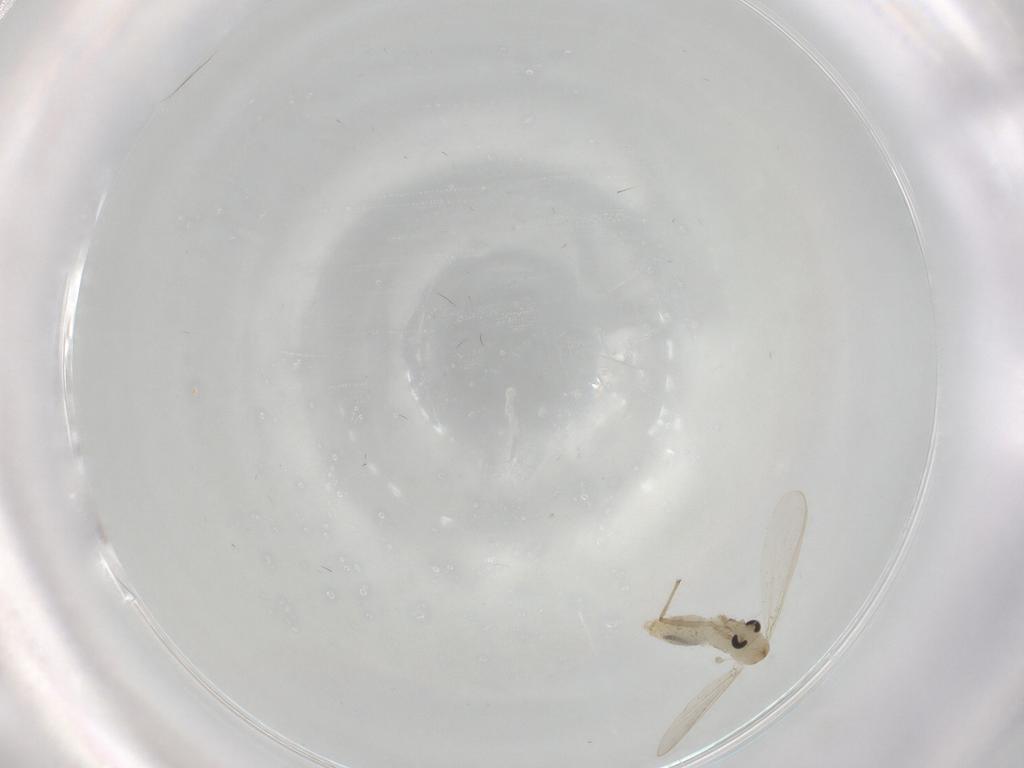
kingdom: Animalia
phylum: Arthropoda
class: Insecta
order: Diptera
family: Chironomidae
